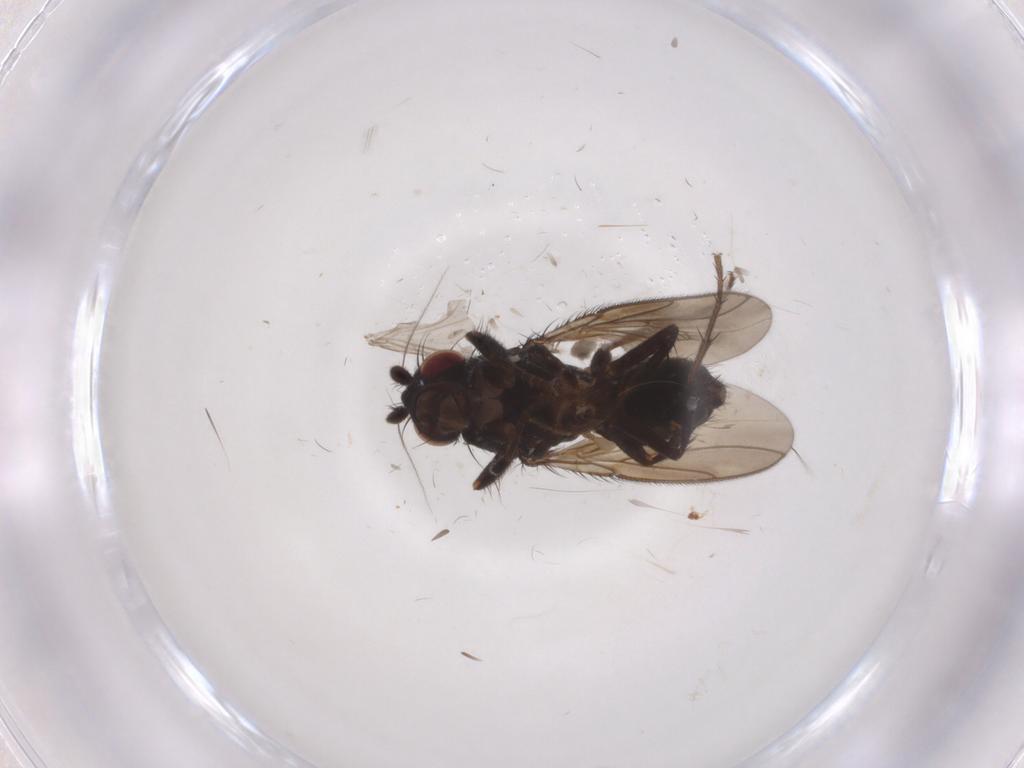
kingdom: Animalia
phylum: Arthropoda
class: Insecta
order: Diptera
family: Sphaeroceridae
